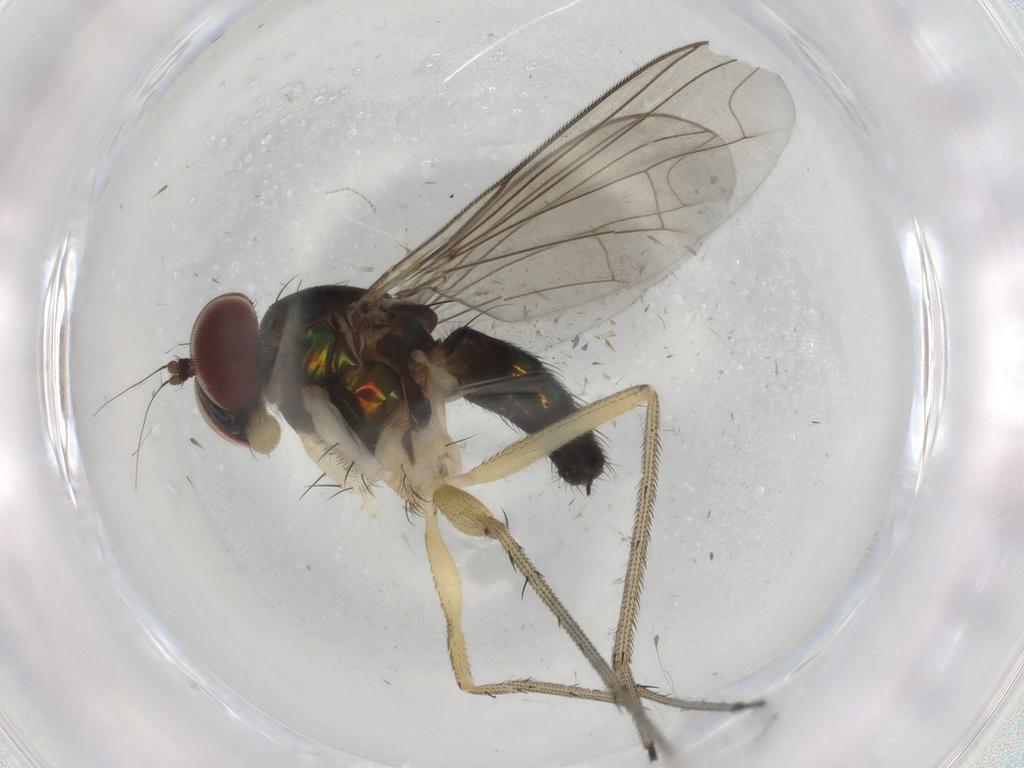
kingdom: Animalia
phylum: Arthropoda
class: Insecta
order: Diptera
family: Dolichopodidae
